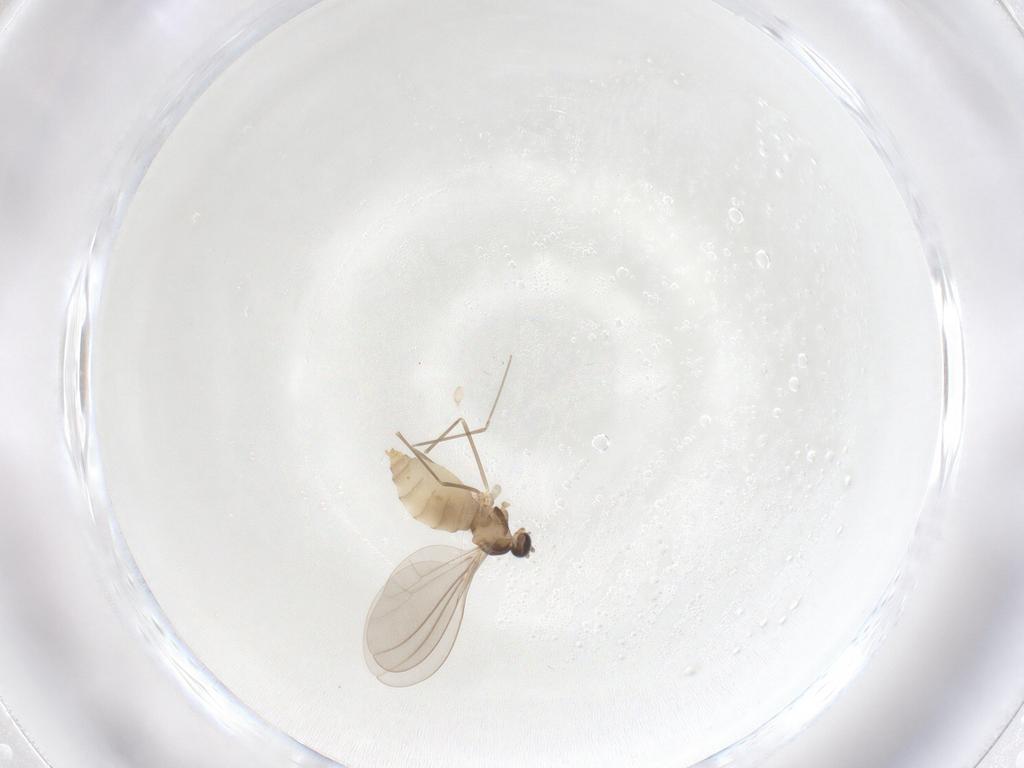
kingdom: Animalia
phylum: Arthropoda
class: Insecta
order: Diptera
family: Cecidomyiidae
